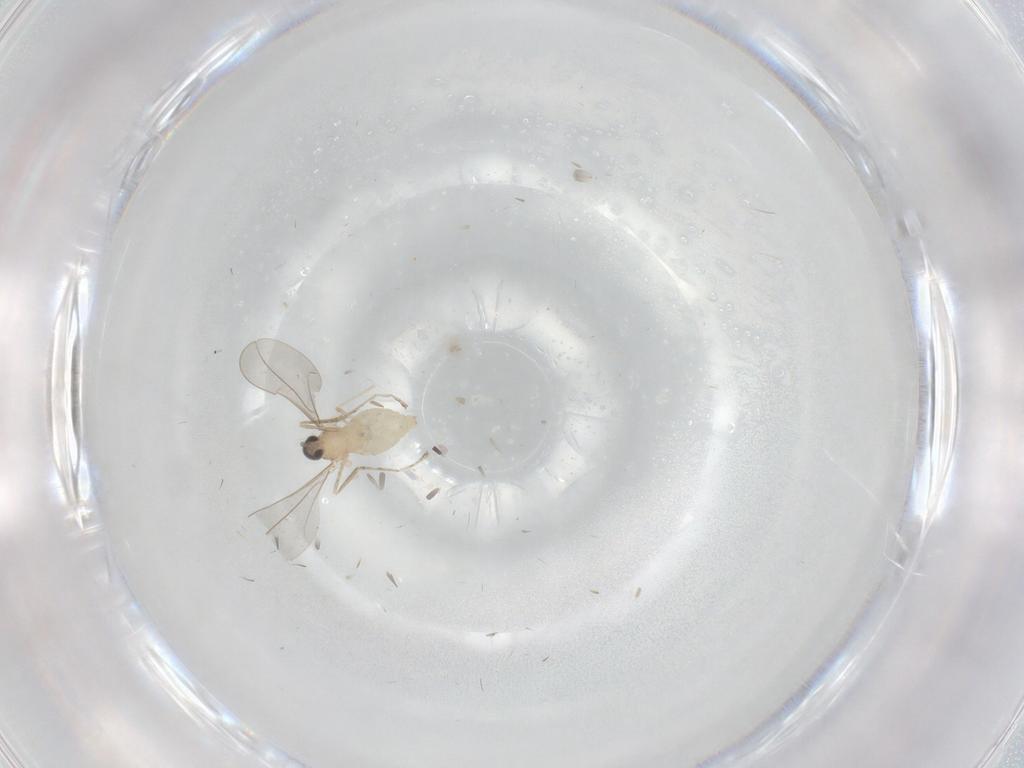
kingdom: Animalia
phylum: Arthropoda
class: Insecta
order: Diptera
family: Cecidomyiidae
